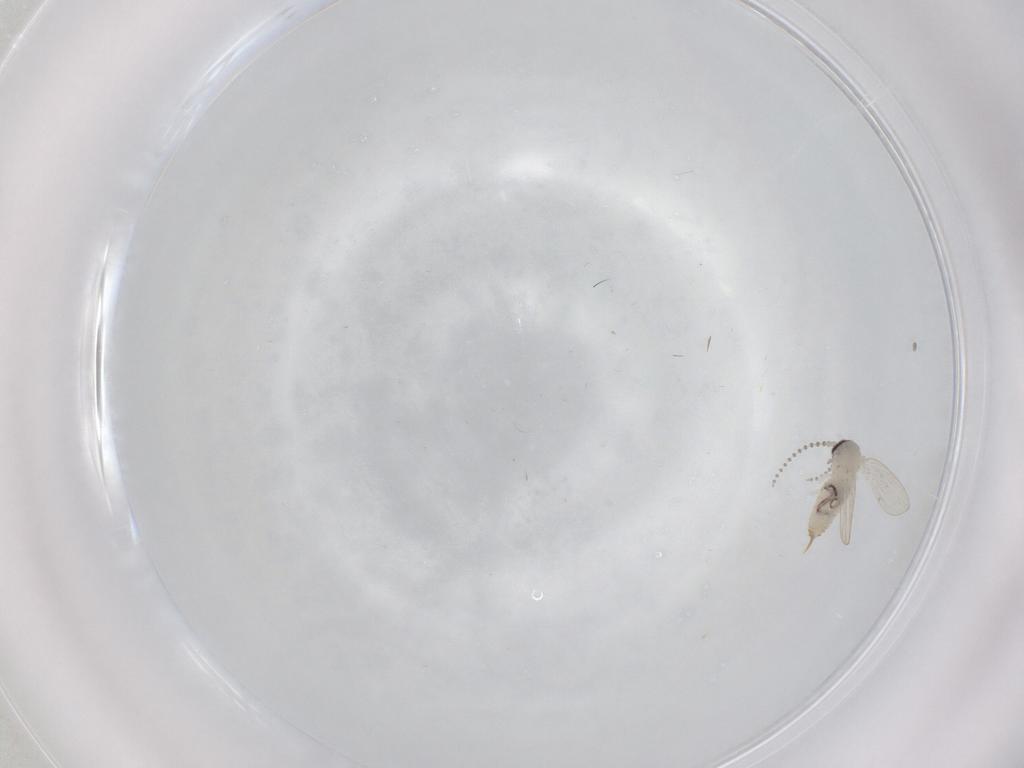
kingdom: Animalia
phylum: Arthropoda
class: Insecta
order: Diptera
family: Psychodidae
